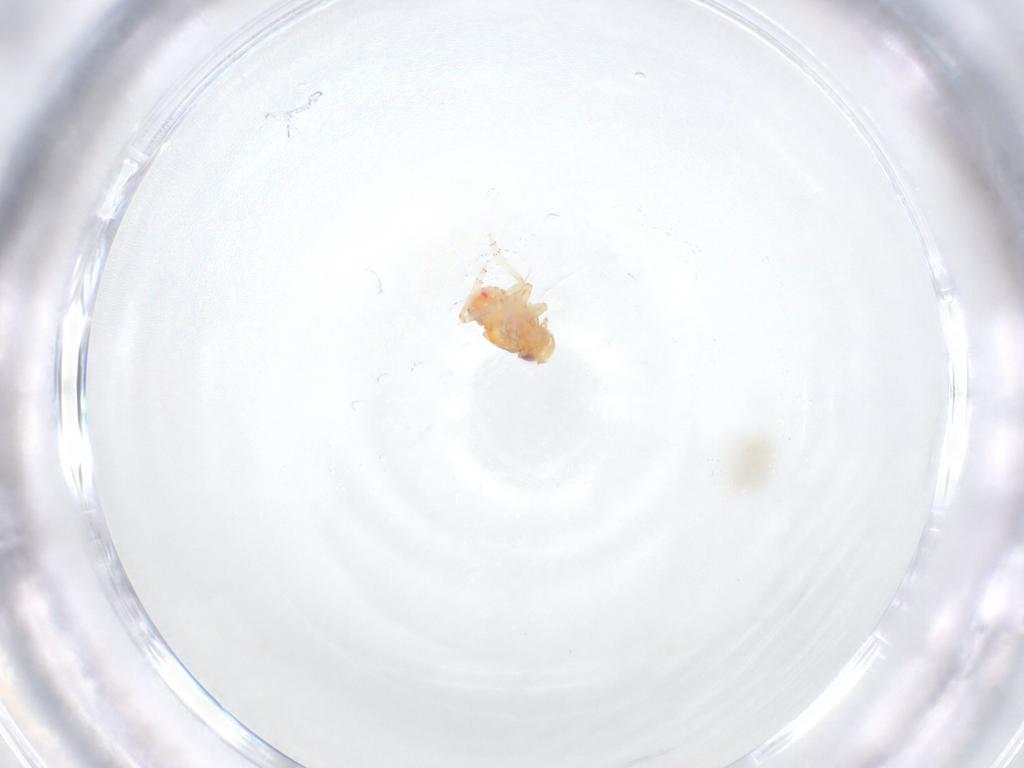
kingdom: Animalia
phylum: Arthropoda
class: Insecta
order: Hemiptera
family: Issidae
